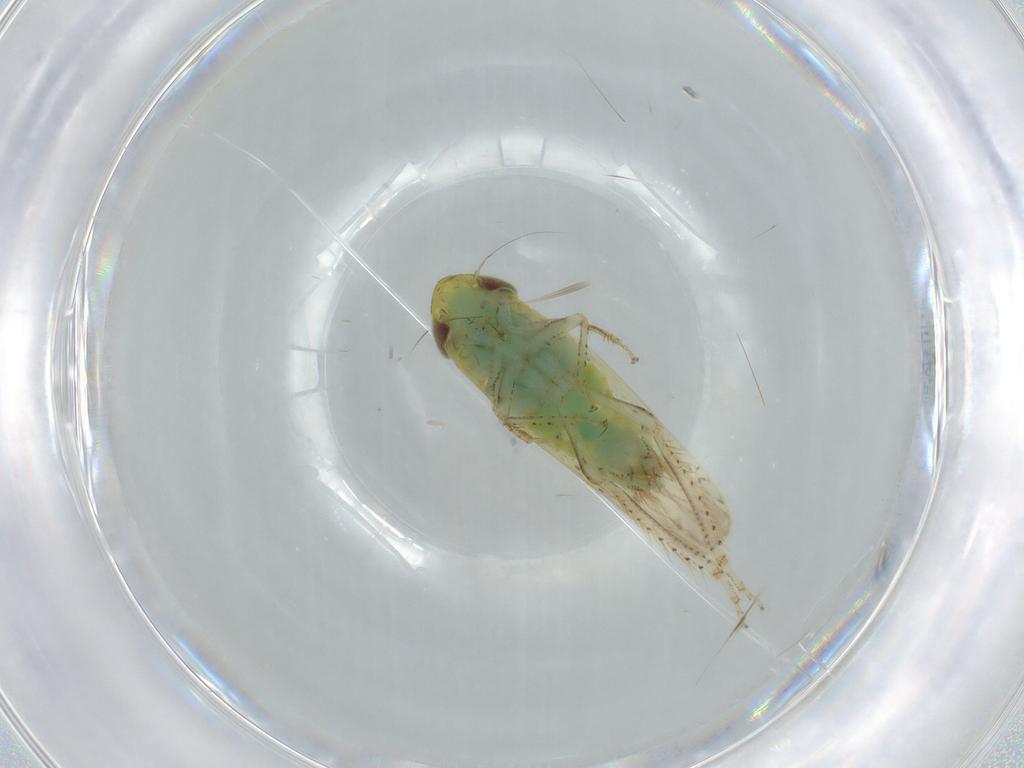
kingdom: Animalia
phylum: Arthropoda
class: Insecta
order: Hemiptera
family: Cicadellidae
